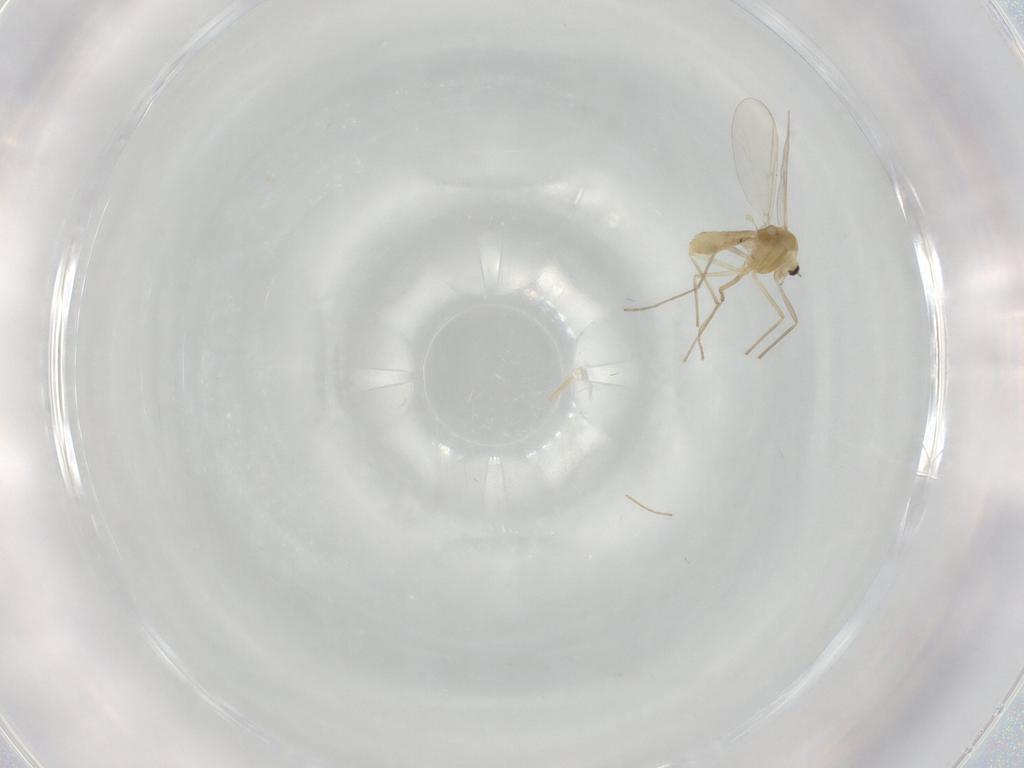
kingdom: Animalia
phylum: Arthropoda
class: Insecta
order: Diptera
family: Chironomidae
